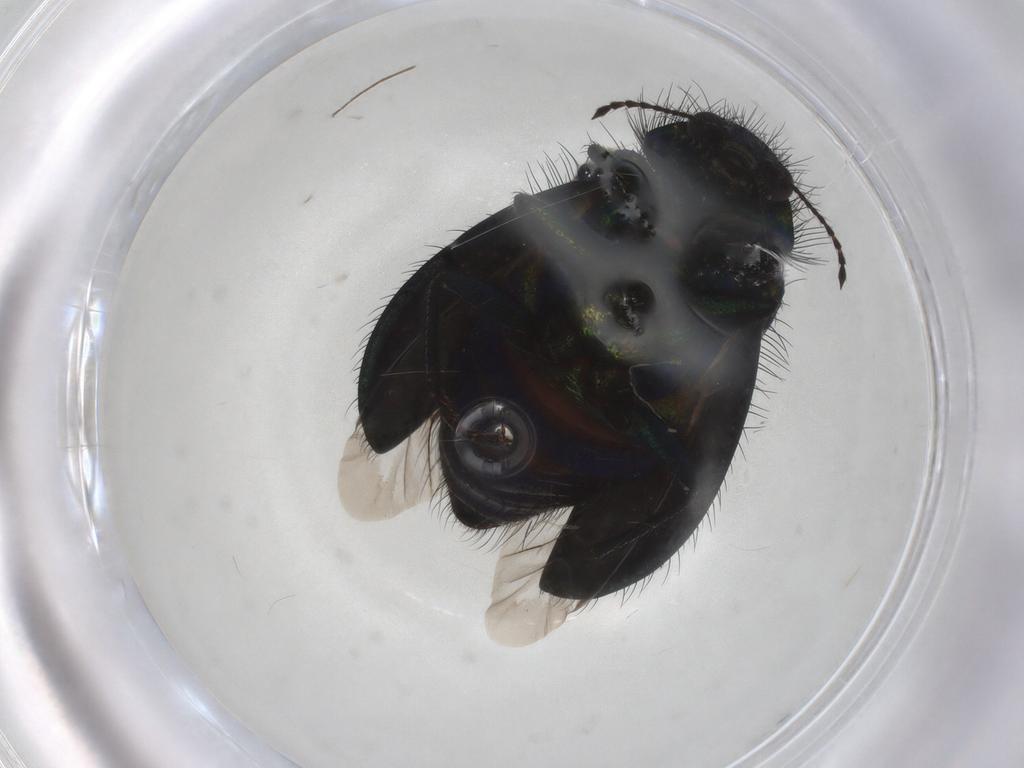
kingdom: Animalia
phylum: Arthropoda
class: Insecta
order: Coleoptera
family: Melyridae
